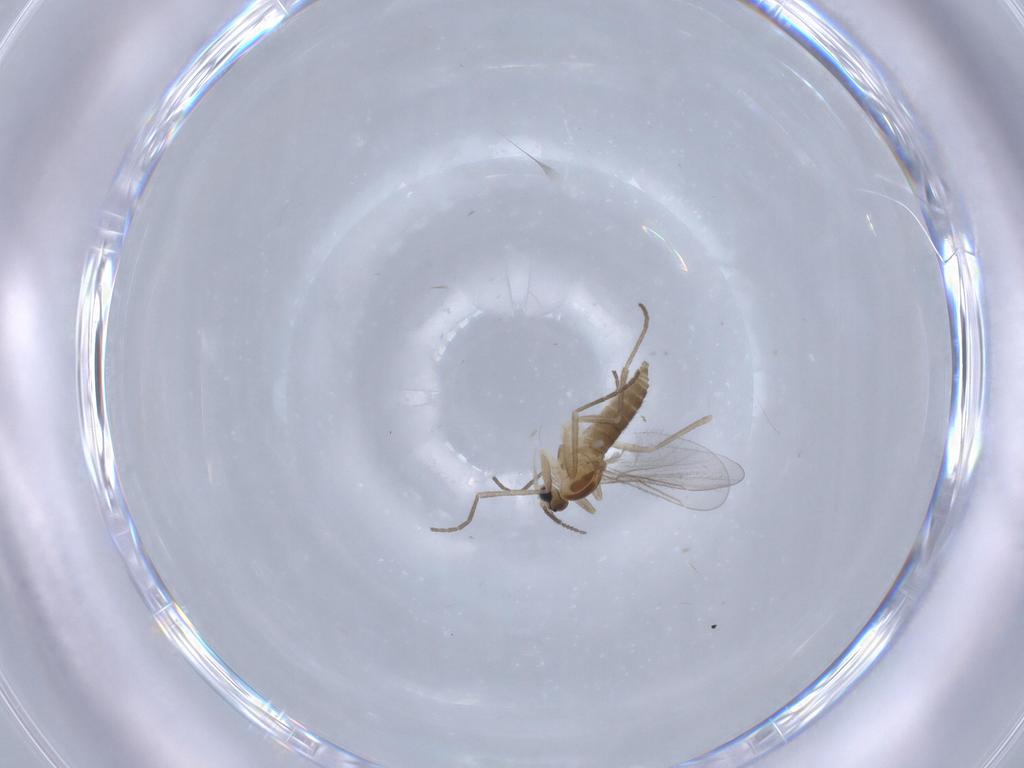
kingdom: Animalia
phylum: Arthropoda
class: Insecta
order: Diptera
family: Cecidomyiidae
